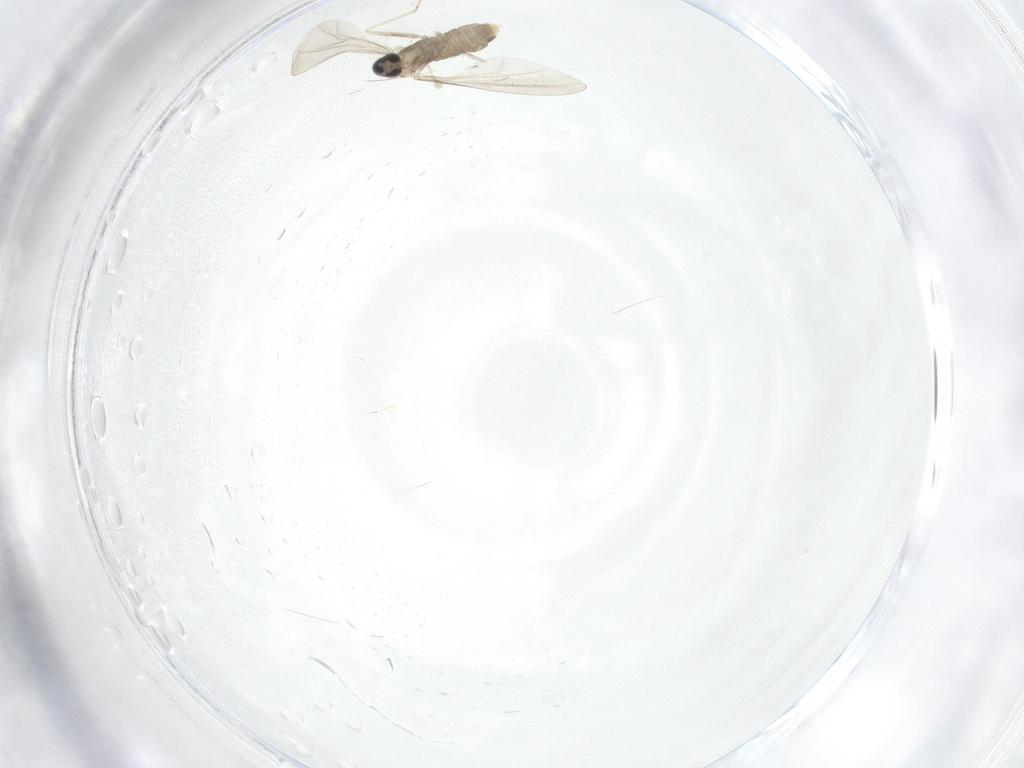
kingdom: Animalia
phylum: Arthropoda
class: Insecta
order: Diptera
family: Cecidomyiidae
